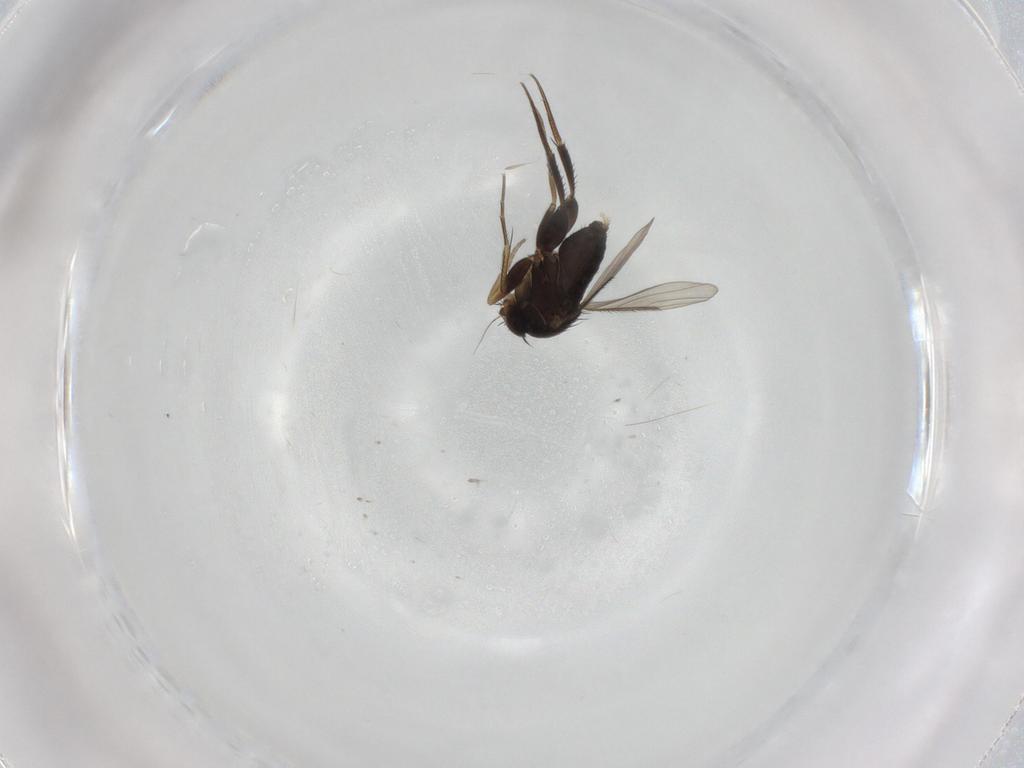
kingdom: Animalia
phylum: Arthropoda
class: Insecta
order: Diptera
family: Phoridae
